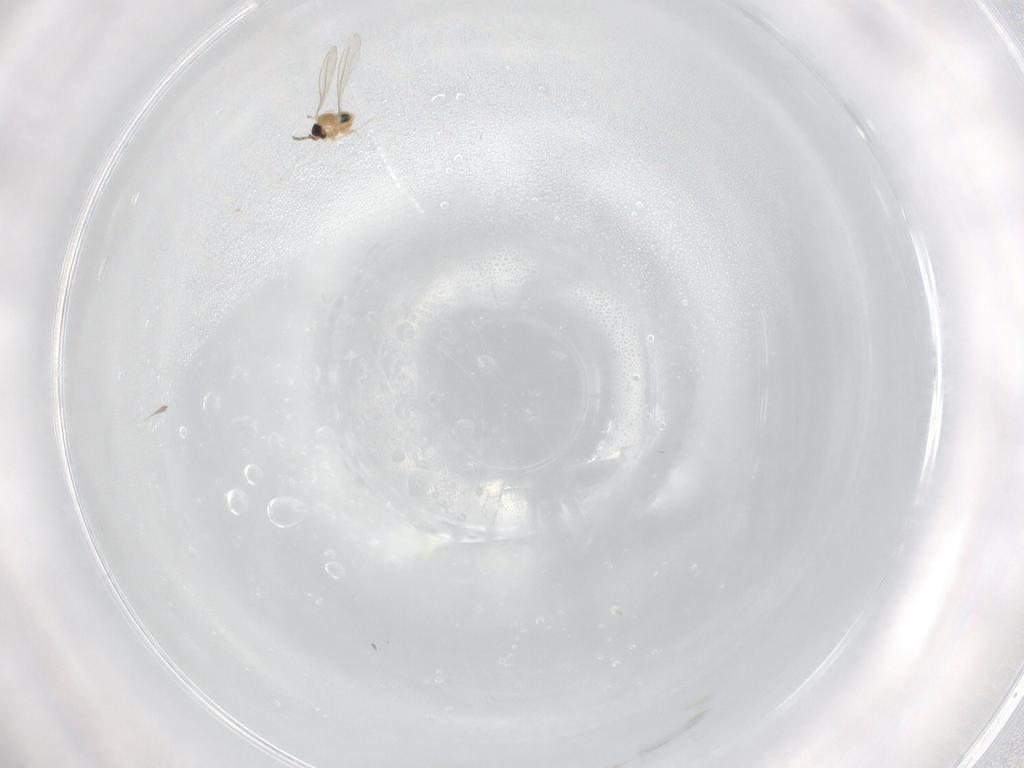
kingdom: Animalia
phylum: Arthropoda
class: Insecta
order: Diptera
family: Cecidomyiidae
